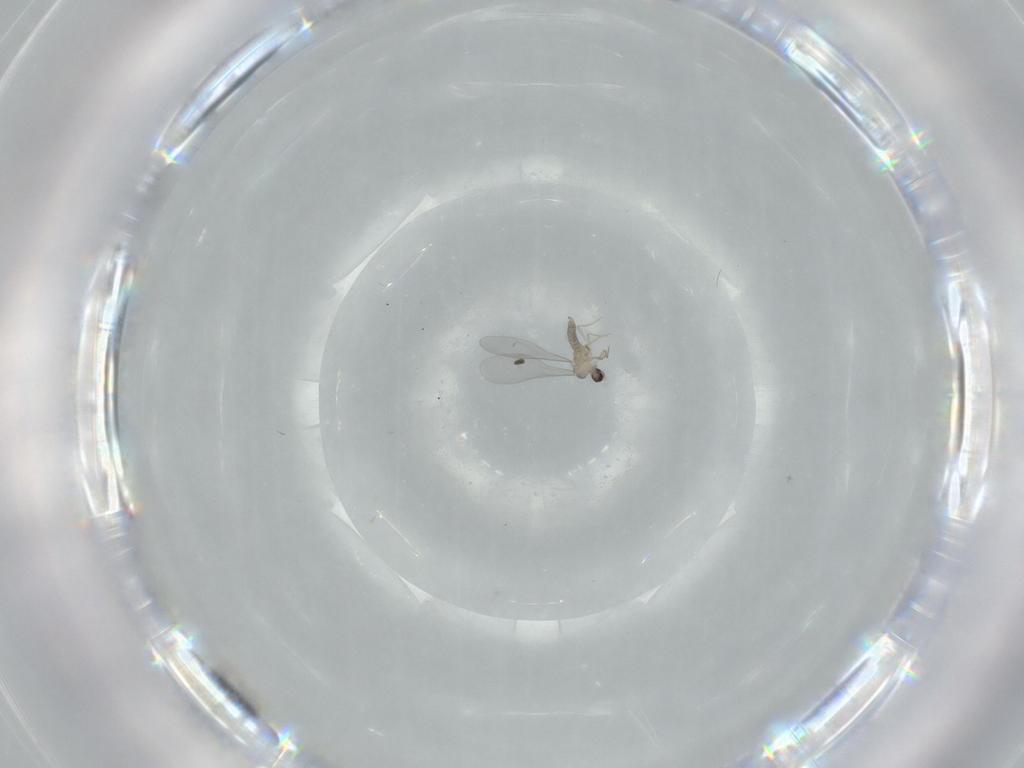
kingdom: Animalia
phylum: Arthropoda
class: Insecta
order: Diptera
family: Cecidomyiidae
